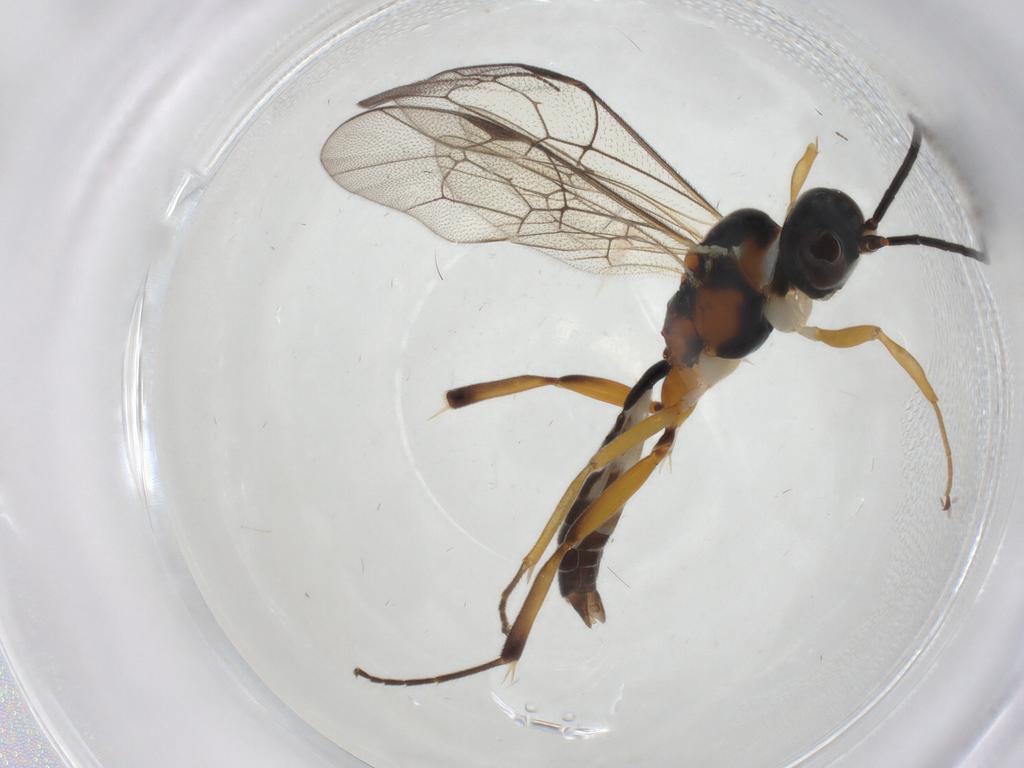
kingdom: Animalia
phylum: Arthropoda
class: Insecta
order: Hymenoptera
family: Ichneumonidae
